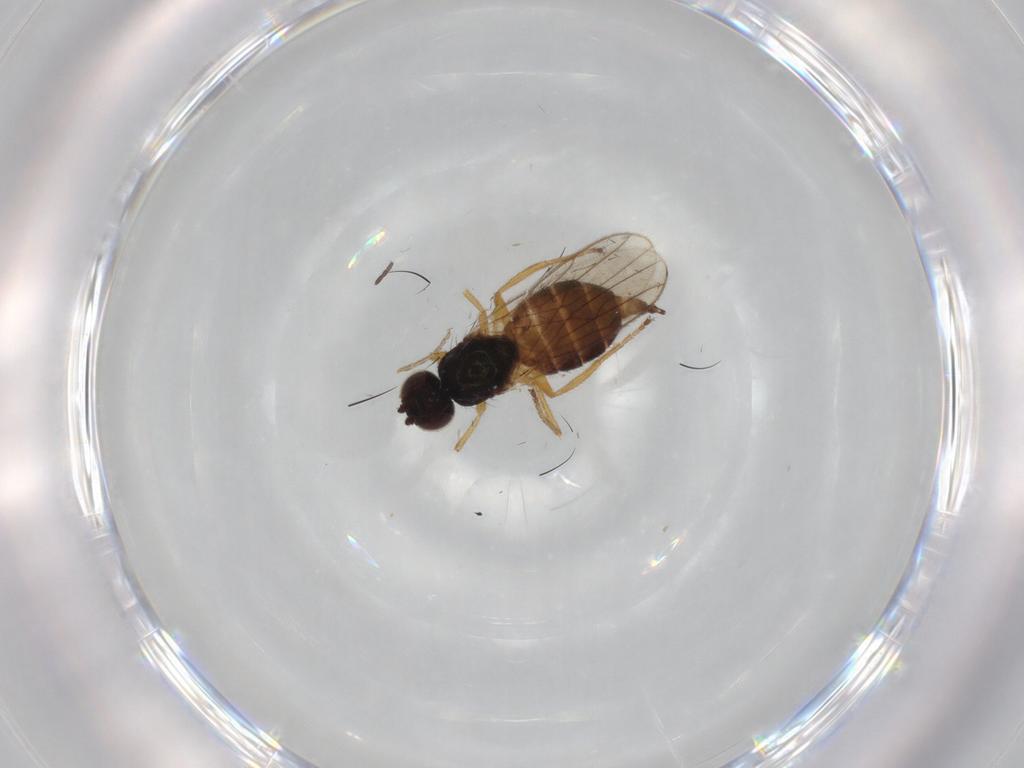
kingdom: Animalia
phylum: Arthropoda
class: Insecta
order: Diptera
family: Chloropidae
